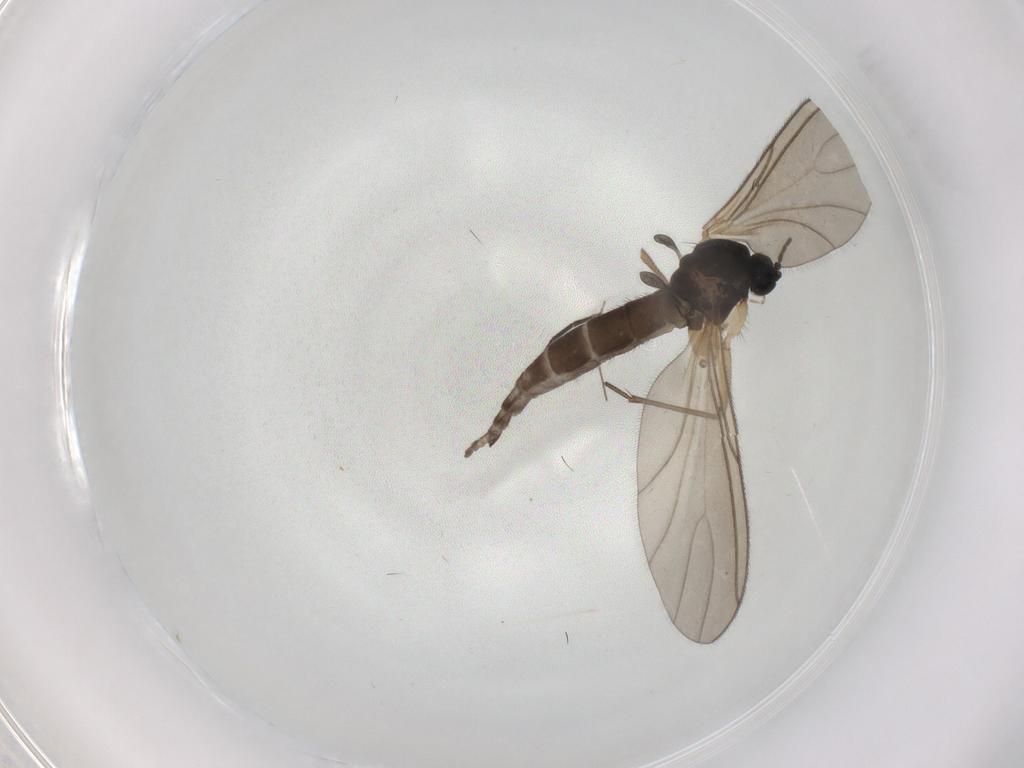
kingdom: Animalia
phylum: Arthropoda
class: Insecta
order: Diptera
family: Sciaridae
